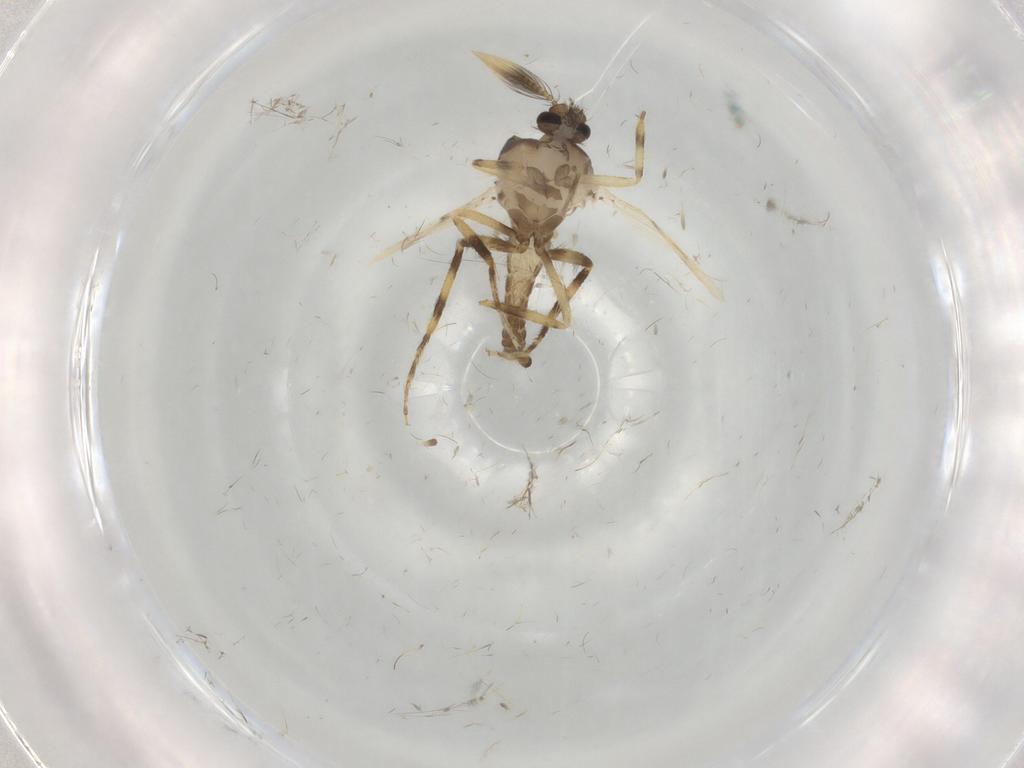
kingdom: Animalia
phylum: Arthropoda
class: Insecta
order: Diptera
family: Ceratopogonidae
